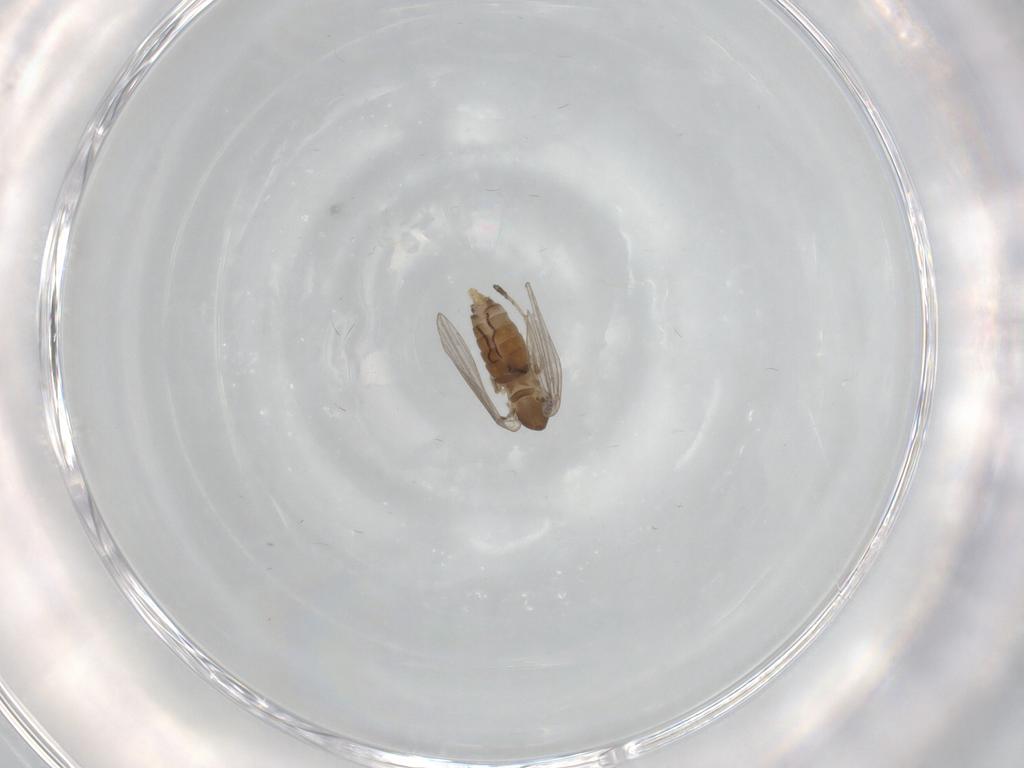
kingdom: Animalia
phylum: Arthropoda
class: Insecta
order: Diptera
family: Chironomidae
